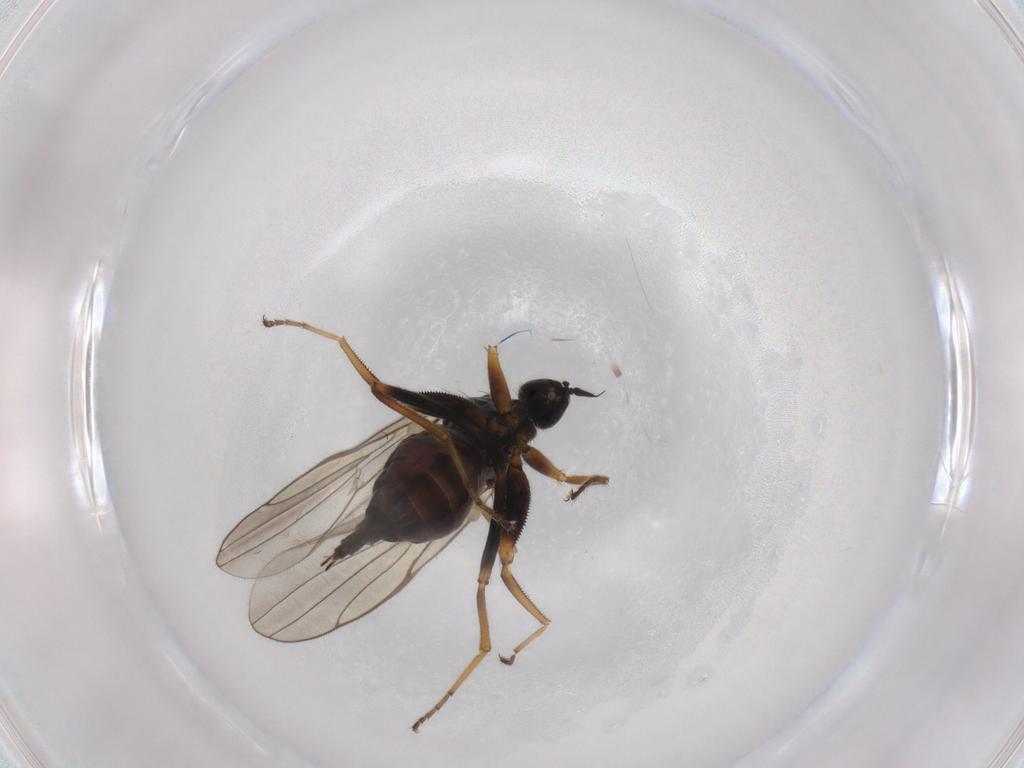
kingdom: Animalia
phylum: Arthropoda
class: Insecta
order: Diptera
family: Hybotidae
